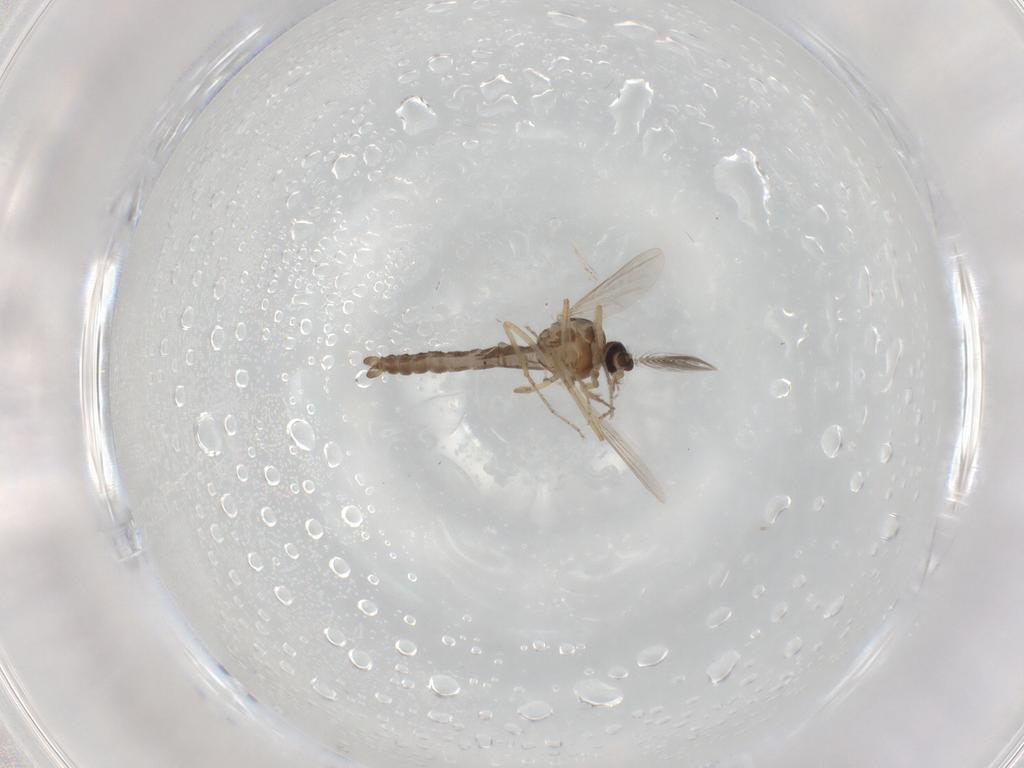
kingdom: Animalia
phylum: Arthropoda
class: Insecta
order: Diptera
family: Ceratopogonidae
